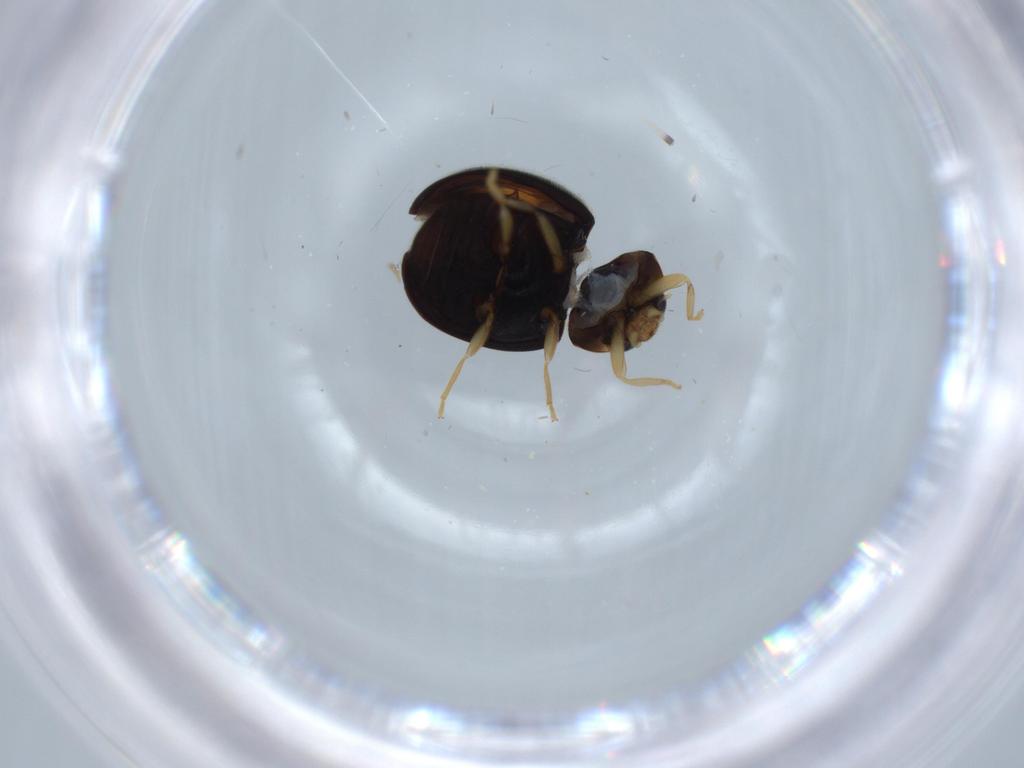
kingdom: Animalia
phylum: Arthropoda
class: Insecta
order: Coleoptera
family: Coccinellidae
